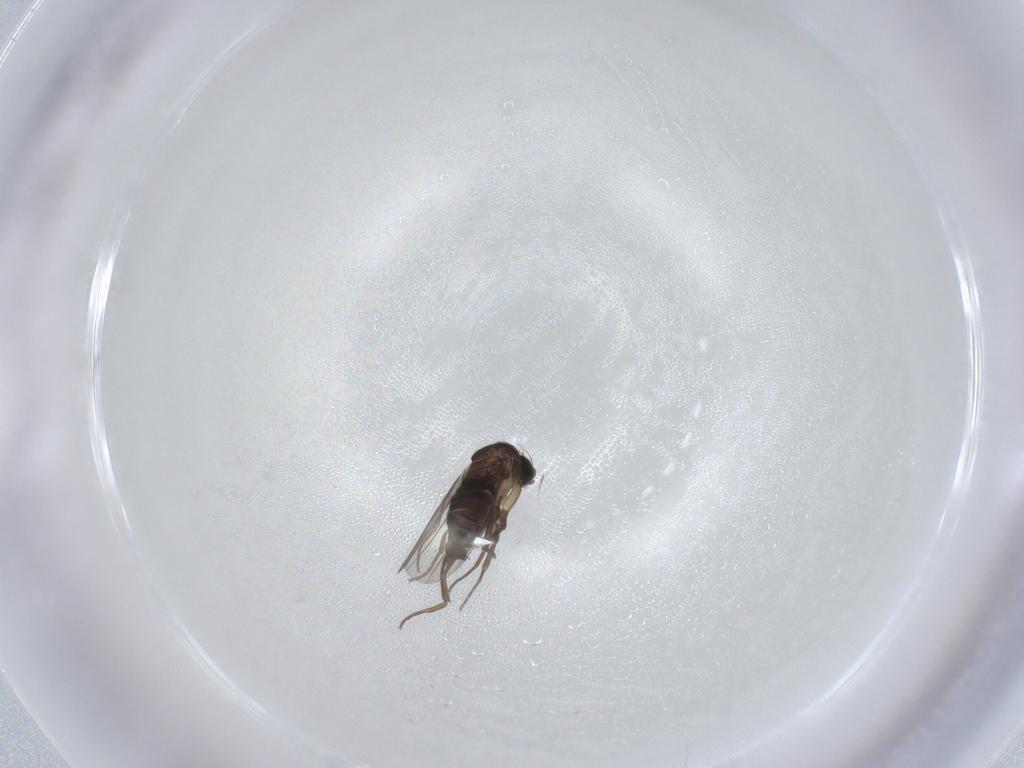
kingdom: Animalia
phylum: Arthropoda
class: Insecta
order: Diptera
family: Phoridae
